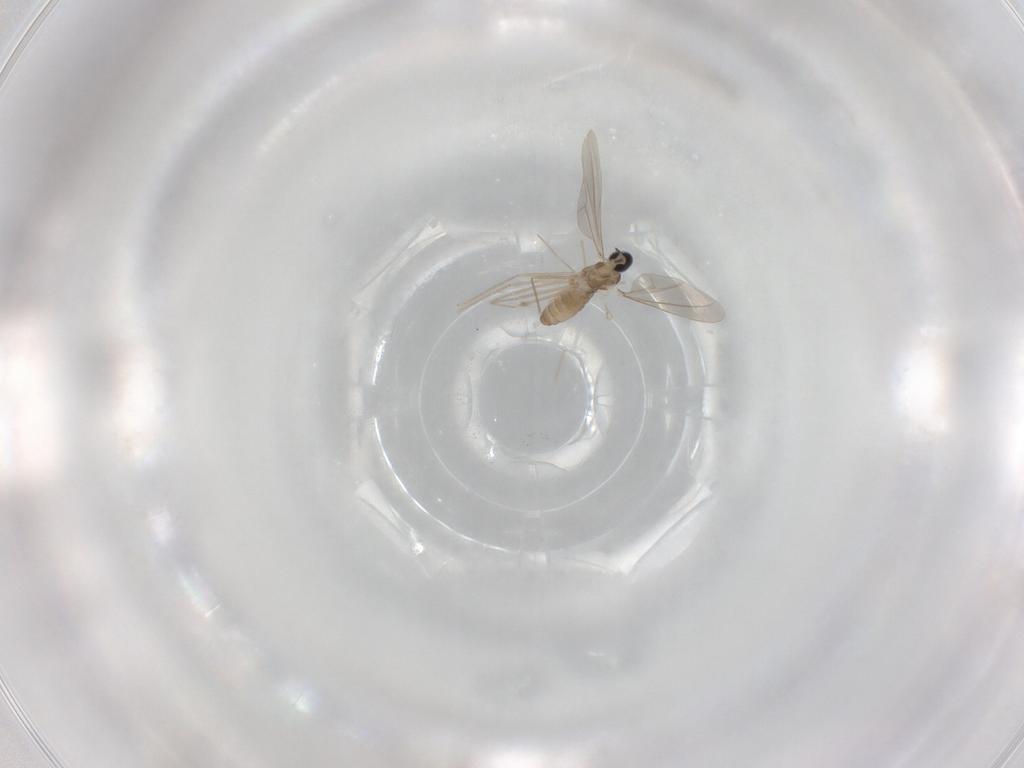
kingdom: Animalia
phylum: Arthropoda
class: Insecta
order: Diptera
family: Cecidomyiidae
